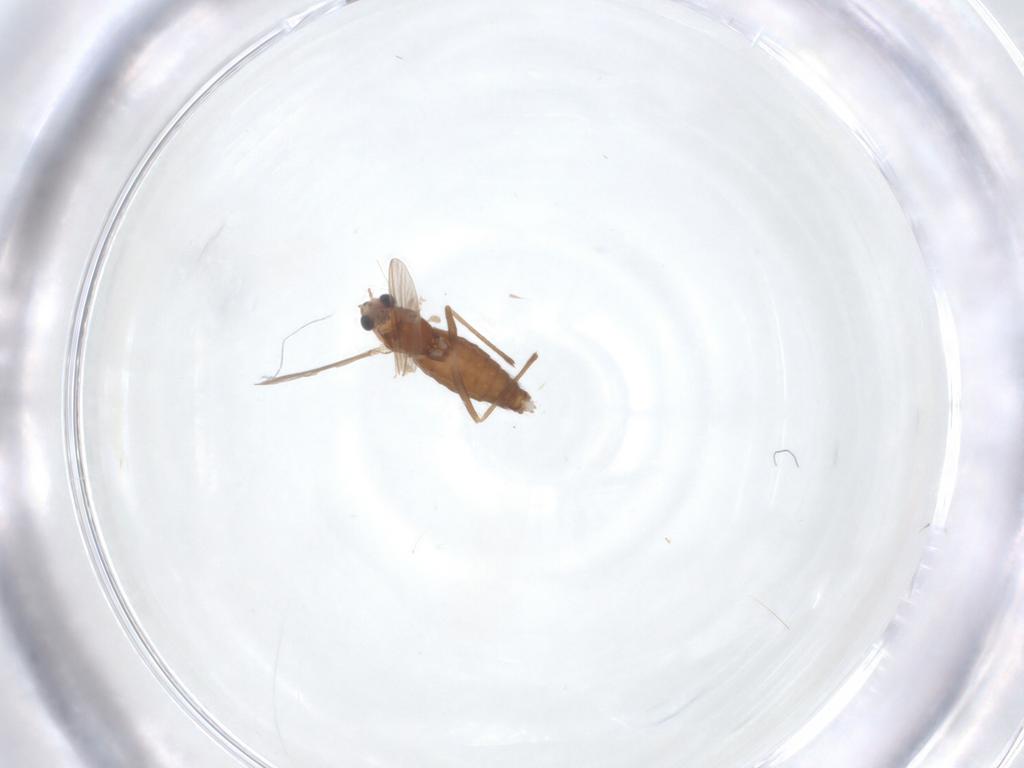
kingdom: Animalia
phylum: Arthropoda
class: Insecta
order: Diptera
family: Chironomidae
